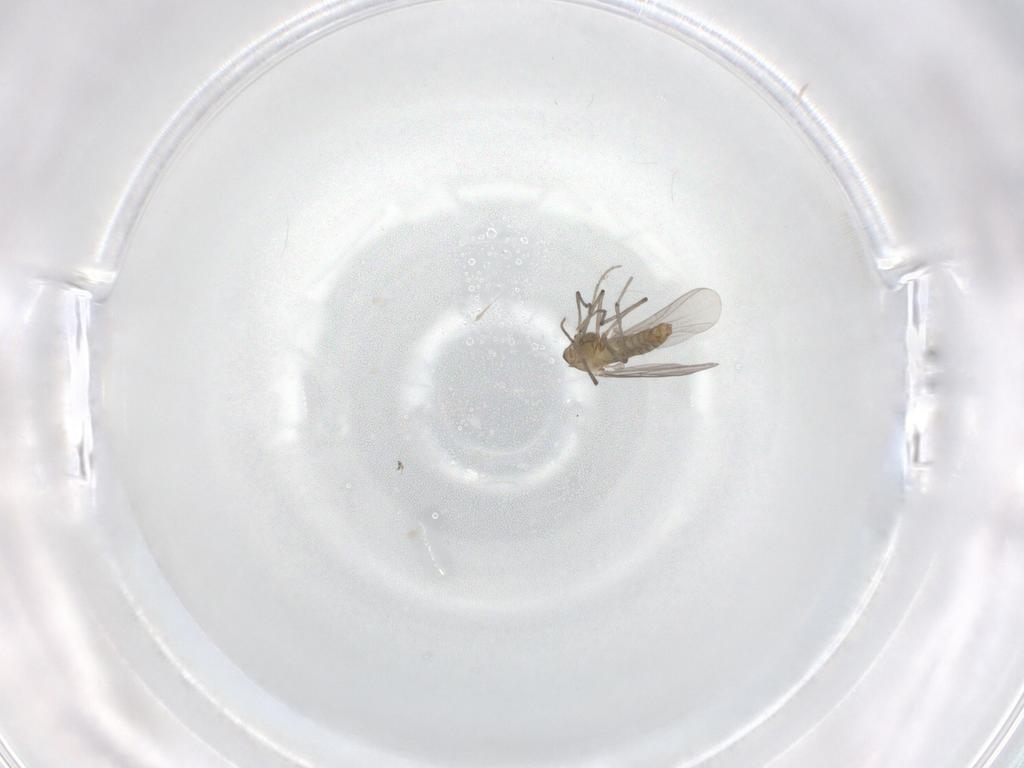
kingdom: Animalia
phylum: Arthropoda
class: Insecta
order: Diptera
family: Chironomidae
